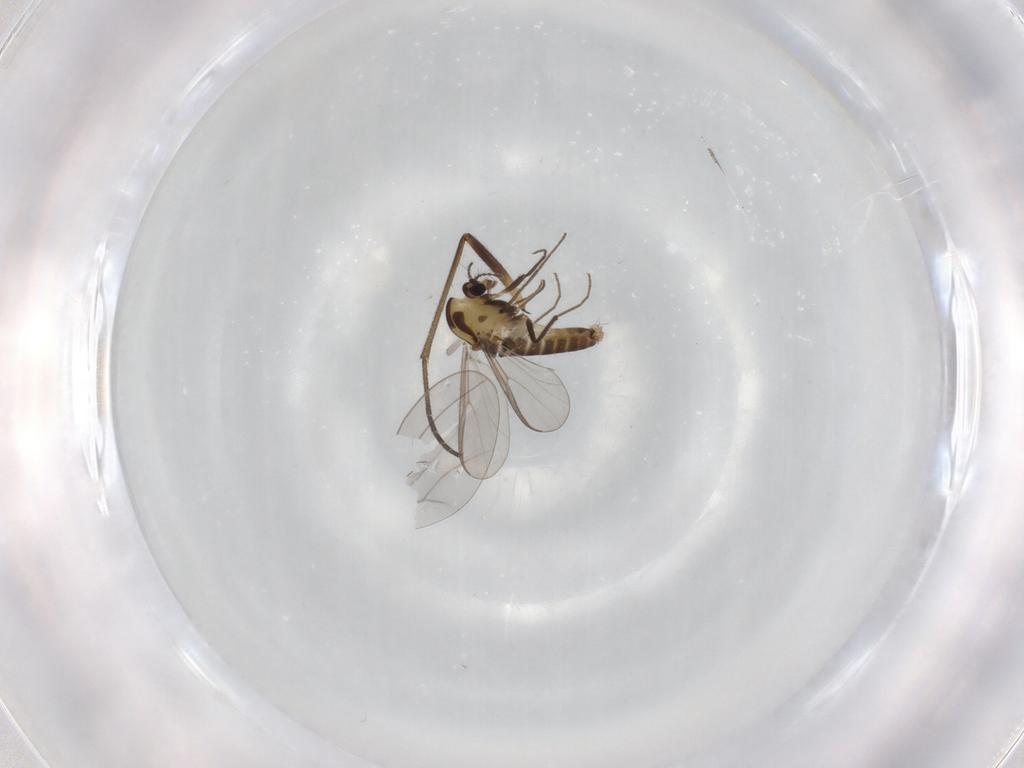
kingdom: Animalia
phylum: Arthropoda
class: Insecta
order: Diptera
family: Chironomidae
